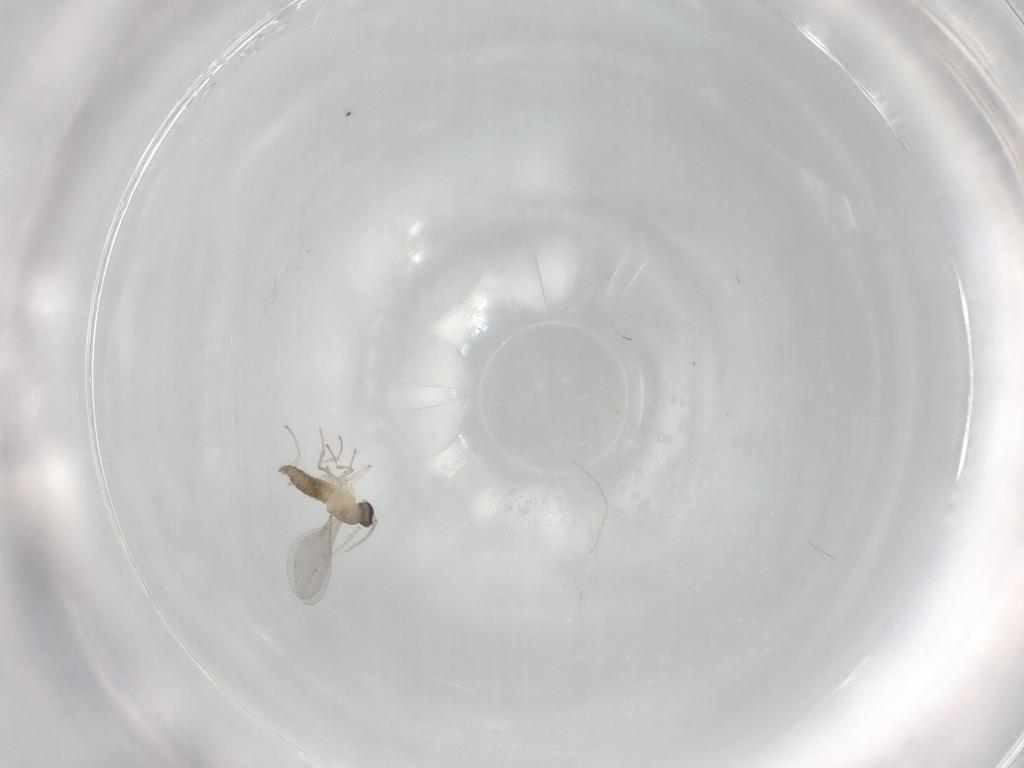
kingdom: Animalia
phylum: Arthropoda
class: Insecta
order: Diptera
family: Cecidomyiidae
